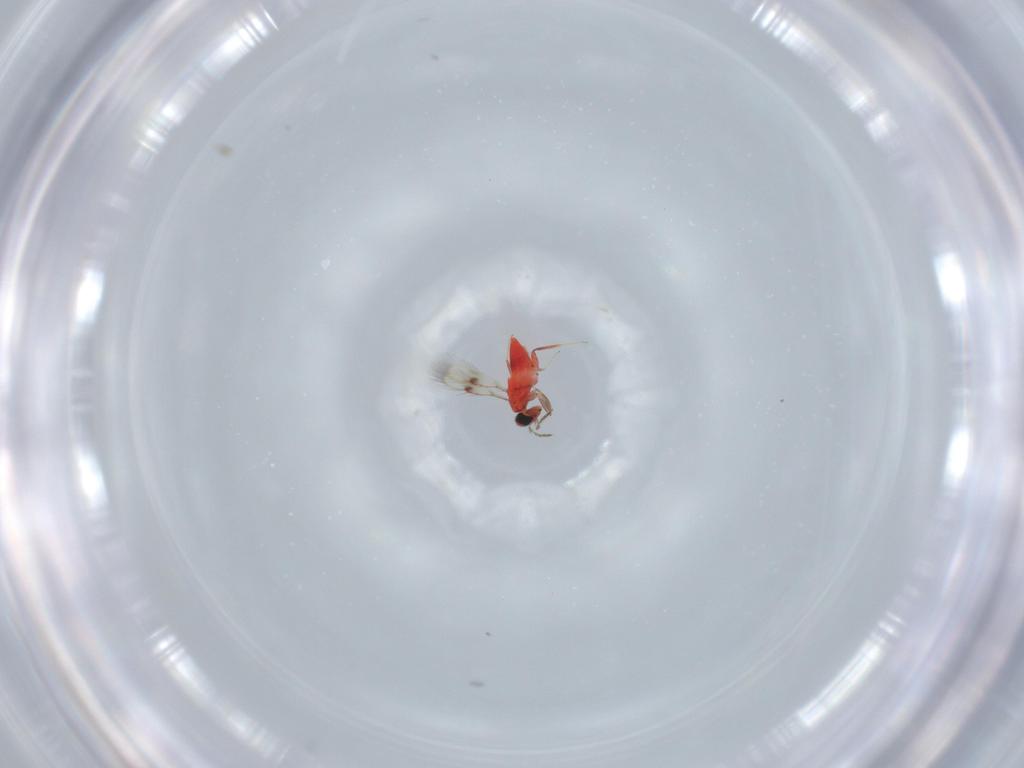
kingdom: Animalia
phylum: Arthropoda
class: Insecta
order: Hymenoptera
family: Trichogrammatidae
